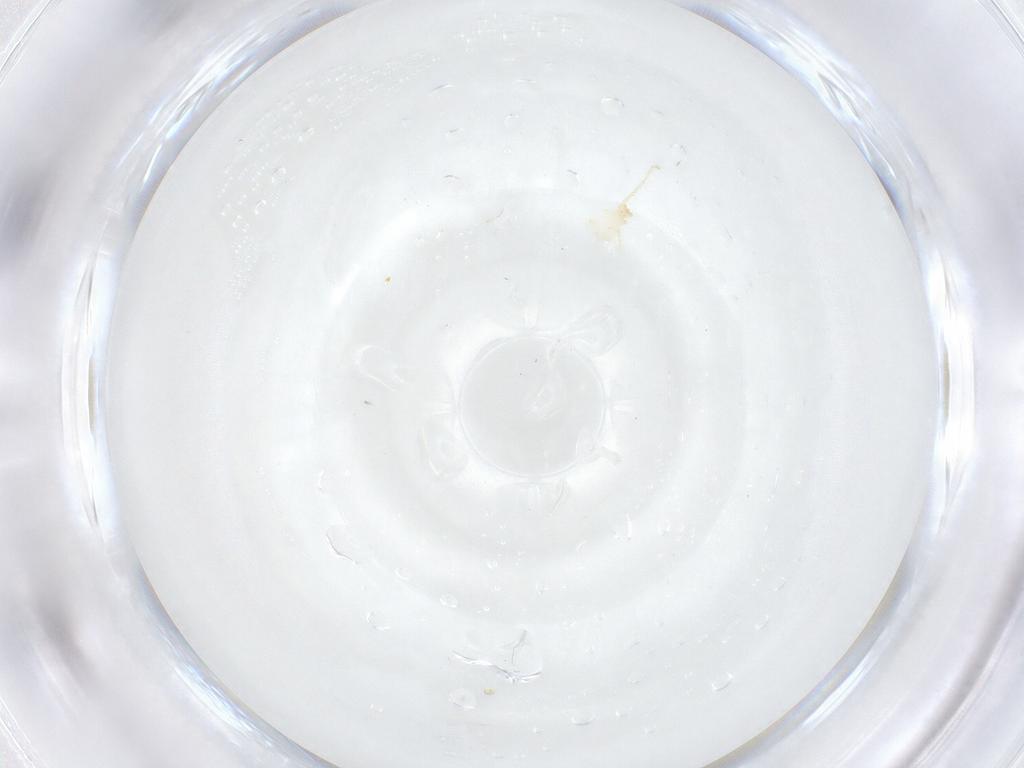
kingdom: Animalia
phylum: Arthropoda
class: Arachnida
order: Trombidiformes
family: Erythraeidae
